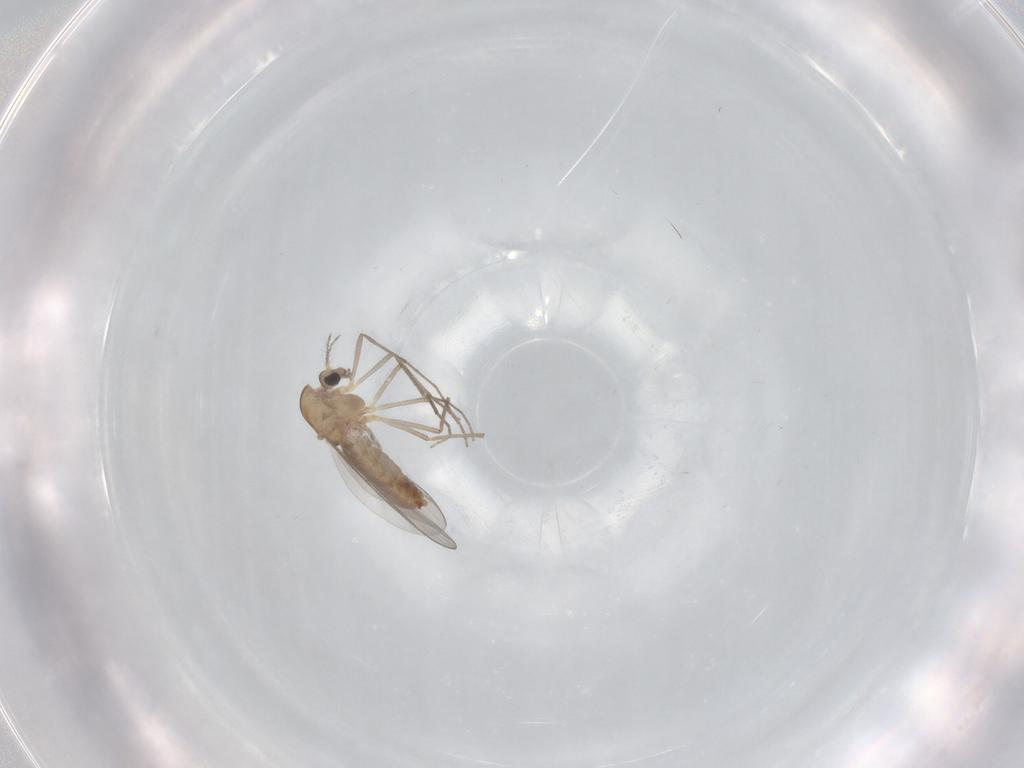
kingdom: Animalia
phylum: Arthropoda
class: Insecta
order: Diptera
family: Chironomidae
